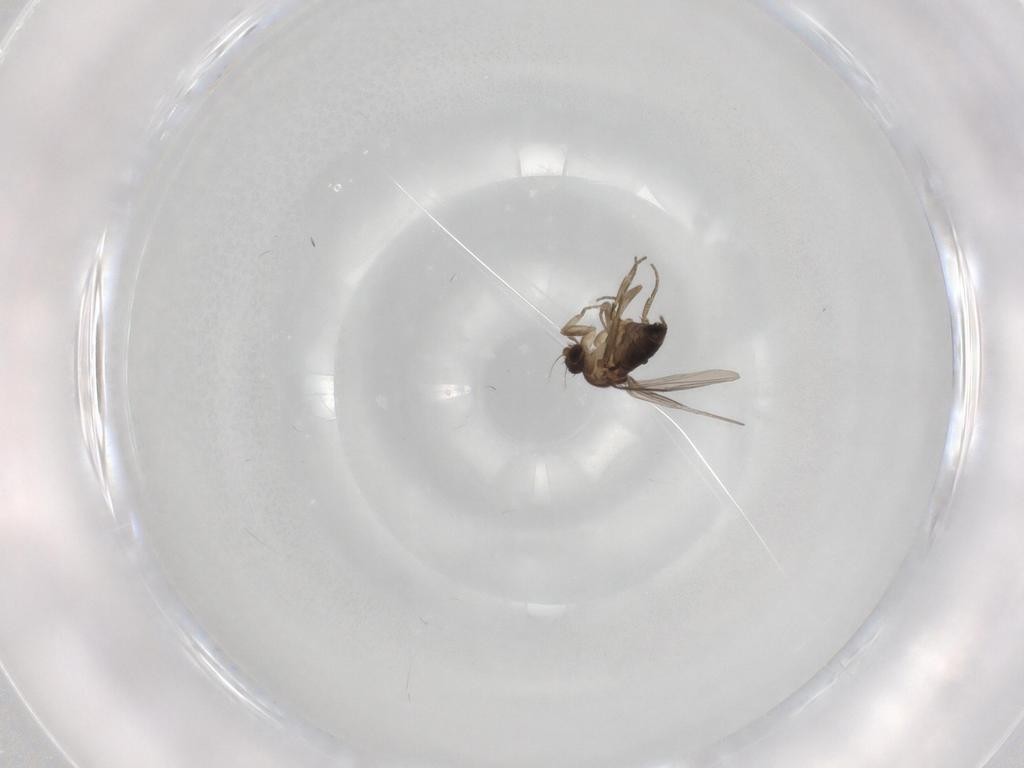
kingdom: Animalia
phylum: Arthropoda
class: Insecta
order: Diptera
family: Phoridae
